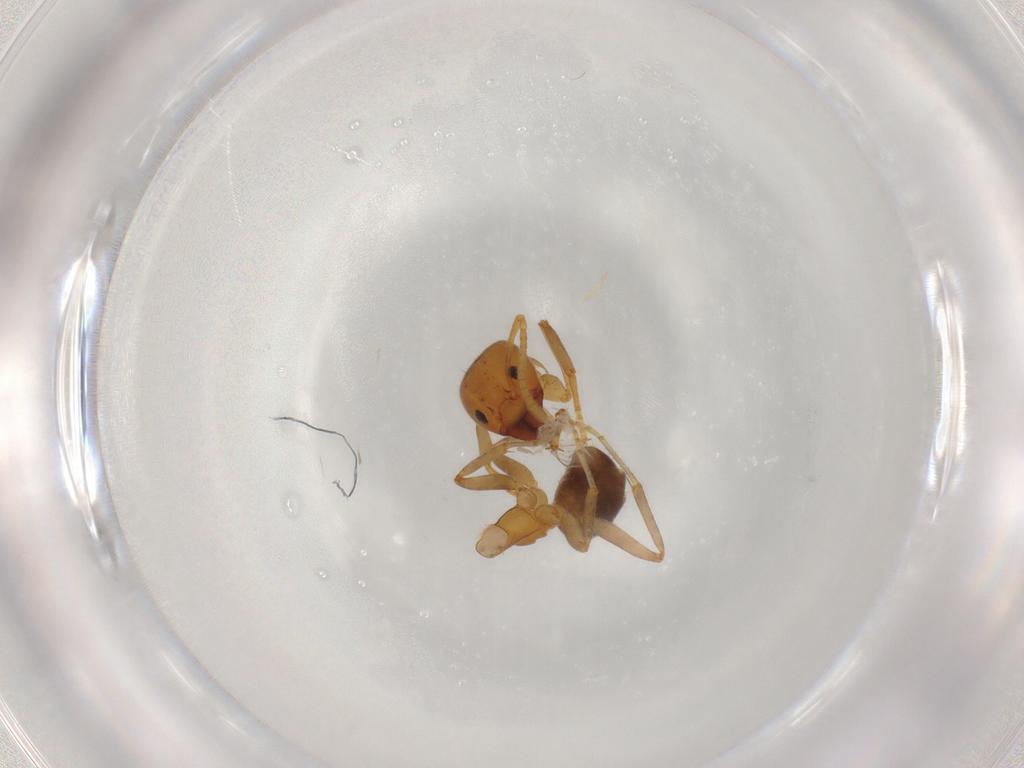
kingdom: Animalia
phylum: Arthropoda
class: Insecta
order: Hymenoptera
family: Formicidae
